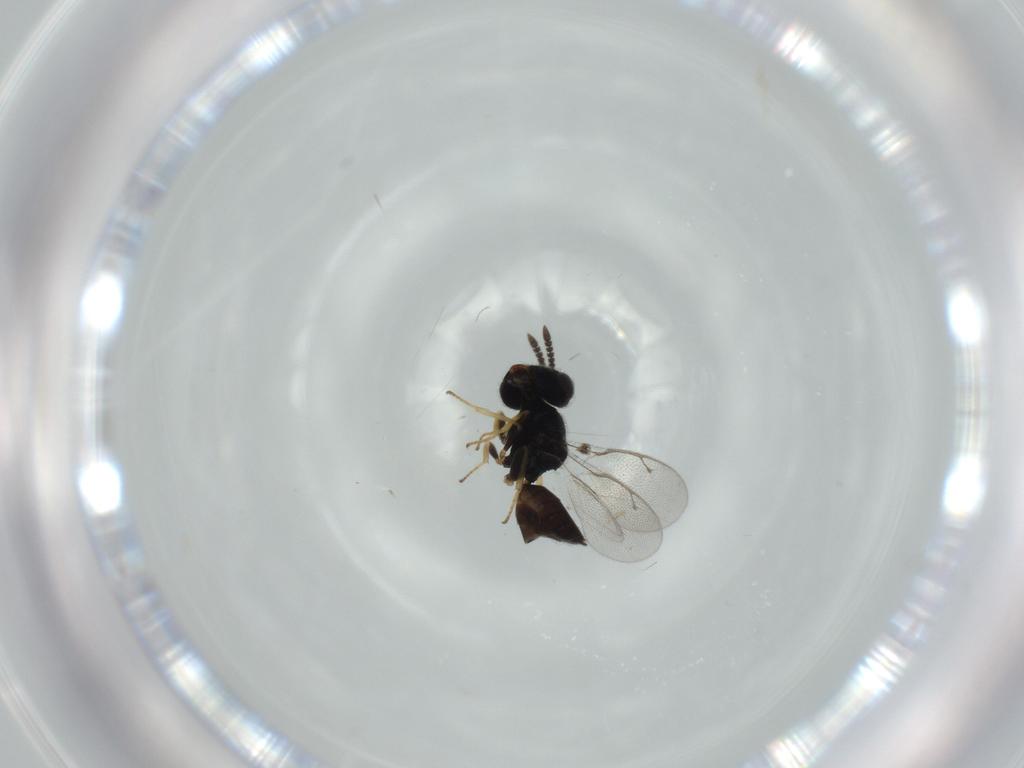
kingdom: Animalia
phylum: Arthropoda
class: Insecta
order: Hymenoptera
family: Pteromalidae
